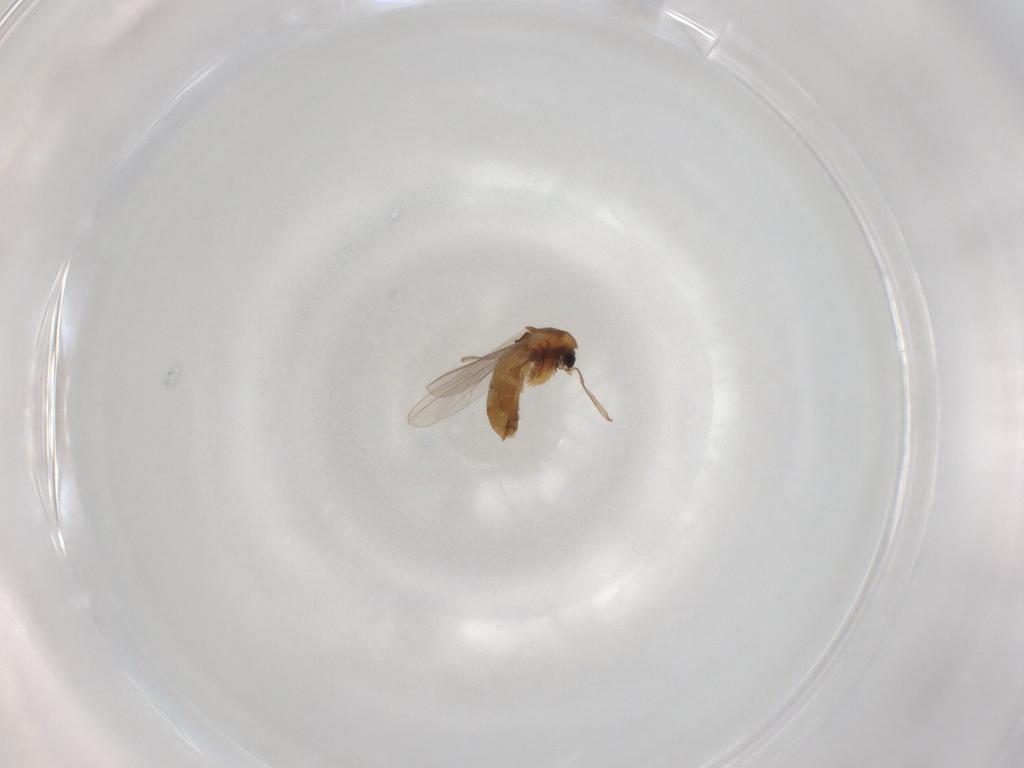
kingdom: Animalia
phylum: Arthropoda
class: Insecta
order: Diptera
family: Chironomidae
